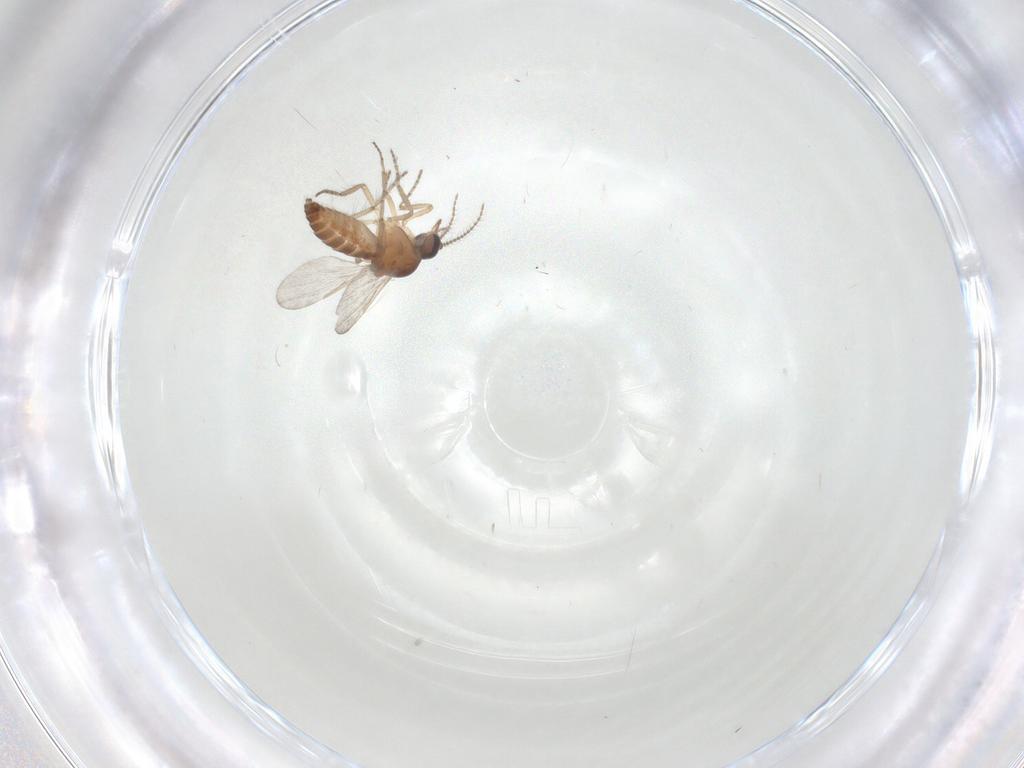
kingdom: Animalia
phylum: Arthropoda
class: Insecta
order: Diptera
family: Ceratopogonidae
